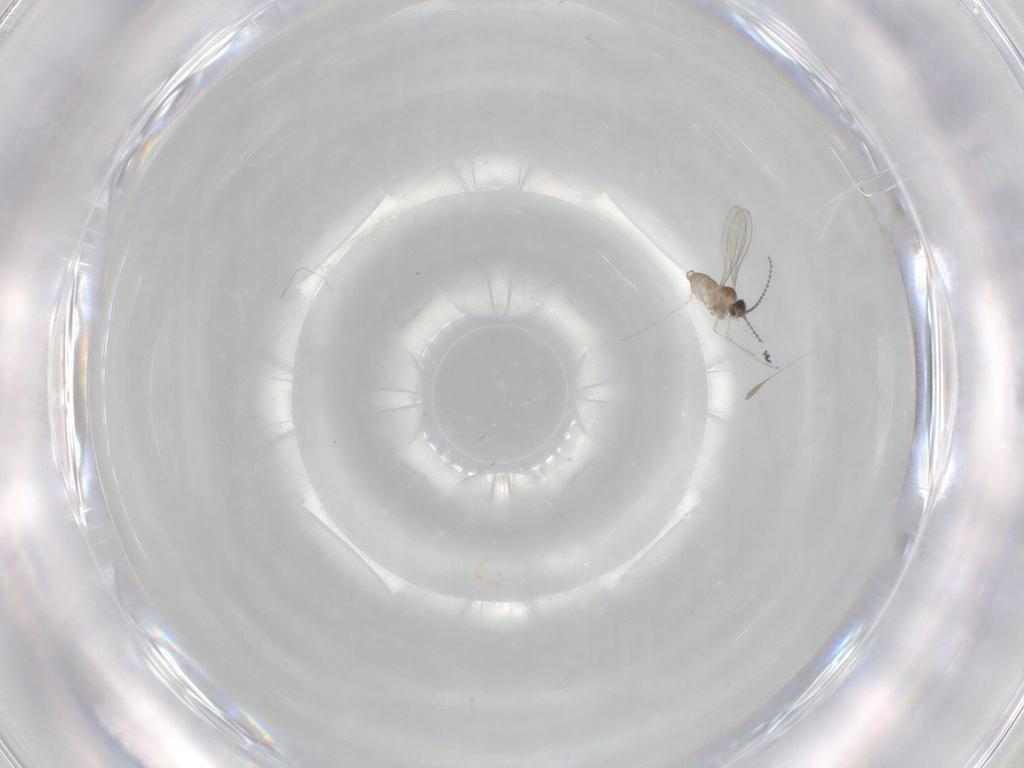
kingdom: Animalia
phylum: Arthropoda
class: Insecta
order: Diptera
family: Cecidomyiidae
